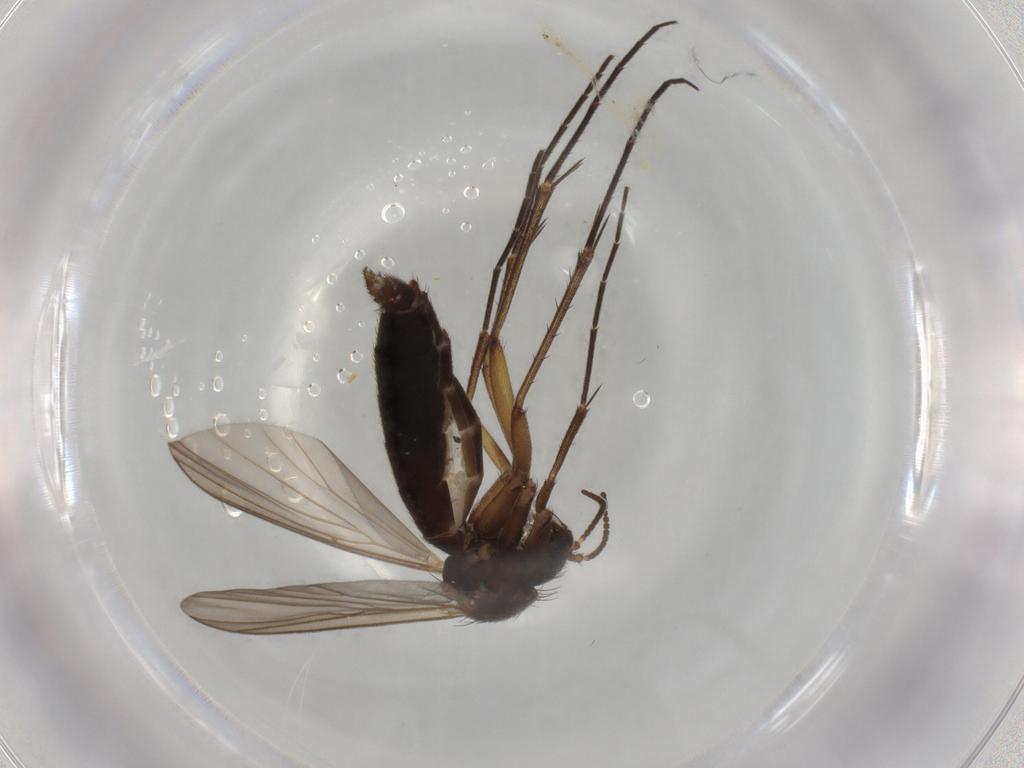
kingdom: Animalia
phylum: Arthropoda
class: Insecta
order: Diptera
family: Mycetophilidae
